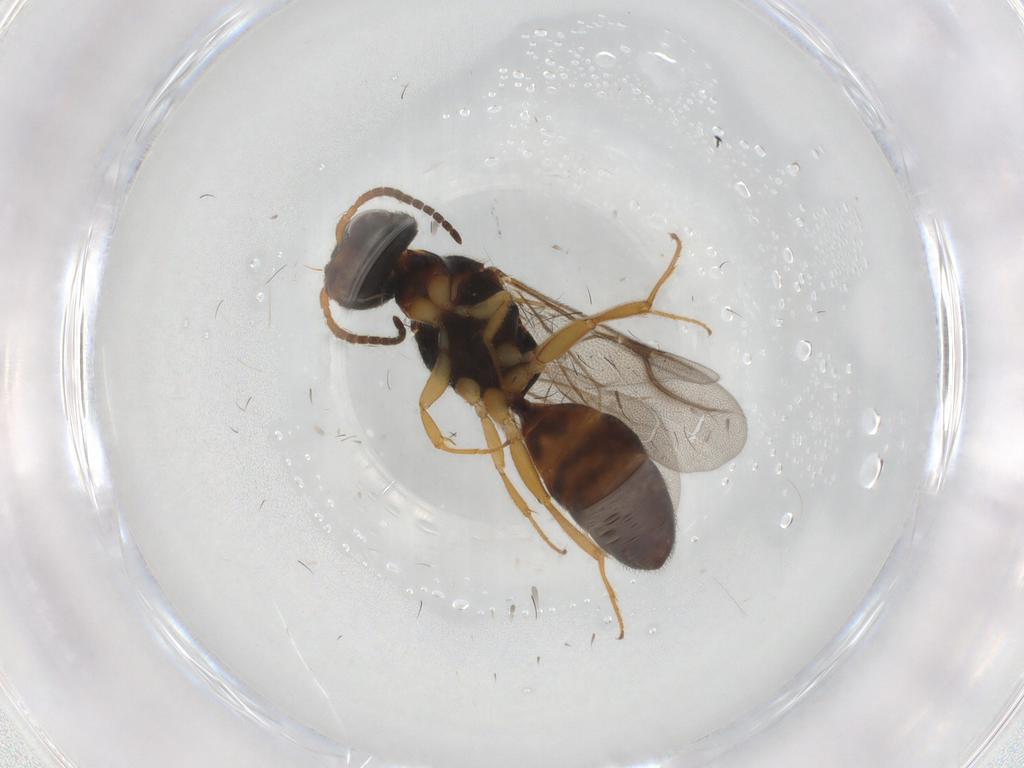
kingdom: Animalia
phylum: Arthropoda
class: Insecta
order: Hymenoptera
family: Bethylidae
